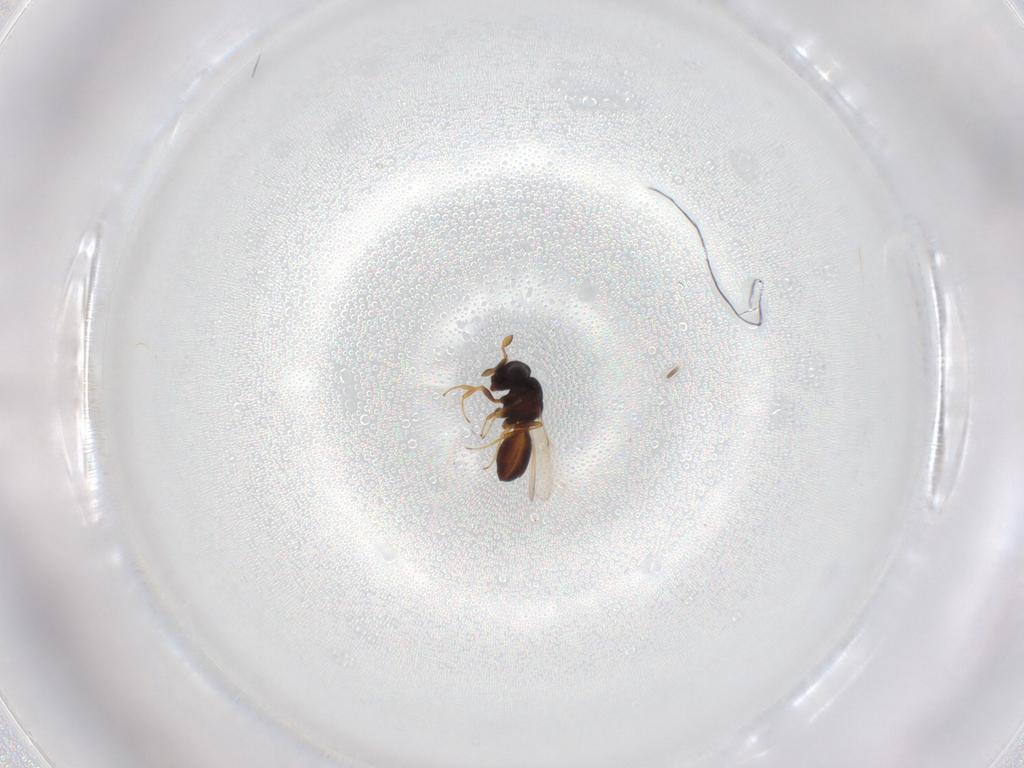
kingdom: Animalia
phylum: Arthropoda
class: Insecta
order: Hymenoptera
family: Scelionidae
